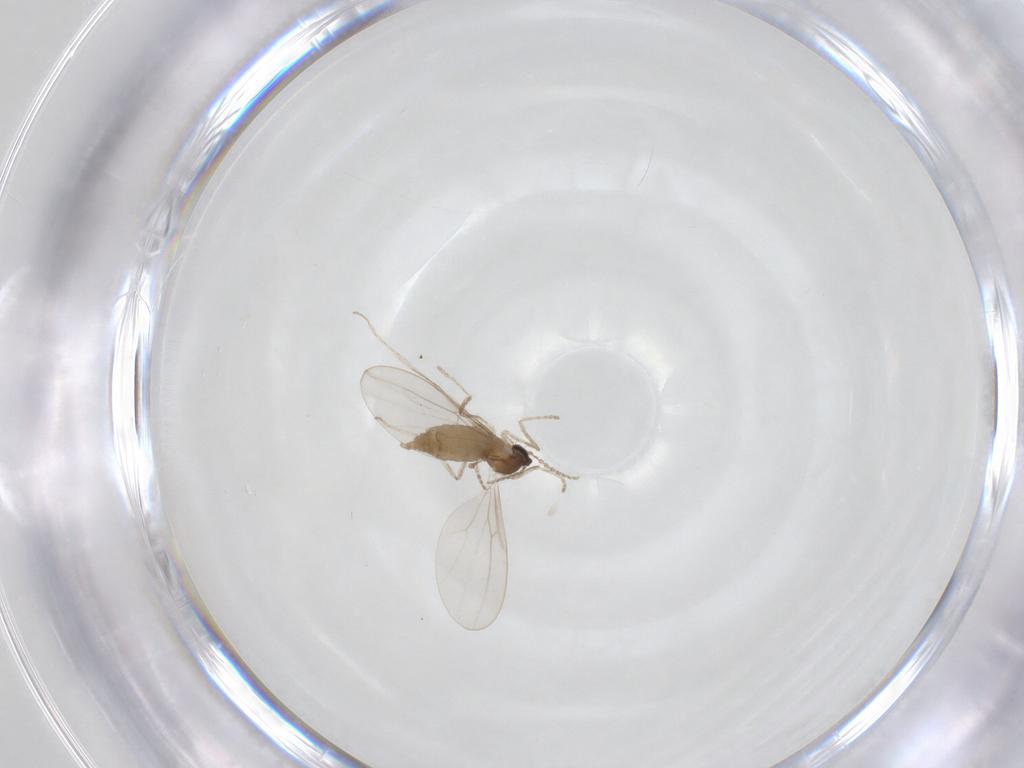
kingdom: Animalia
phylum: Arthropoda
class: Insecta
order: Diptera
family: Cecidomyiidae
